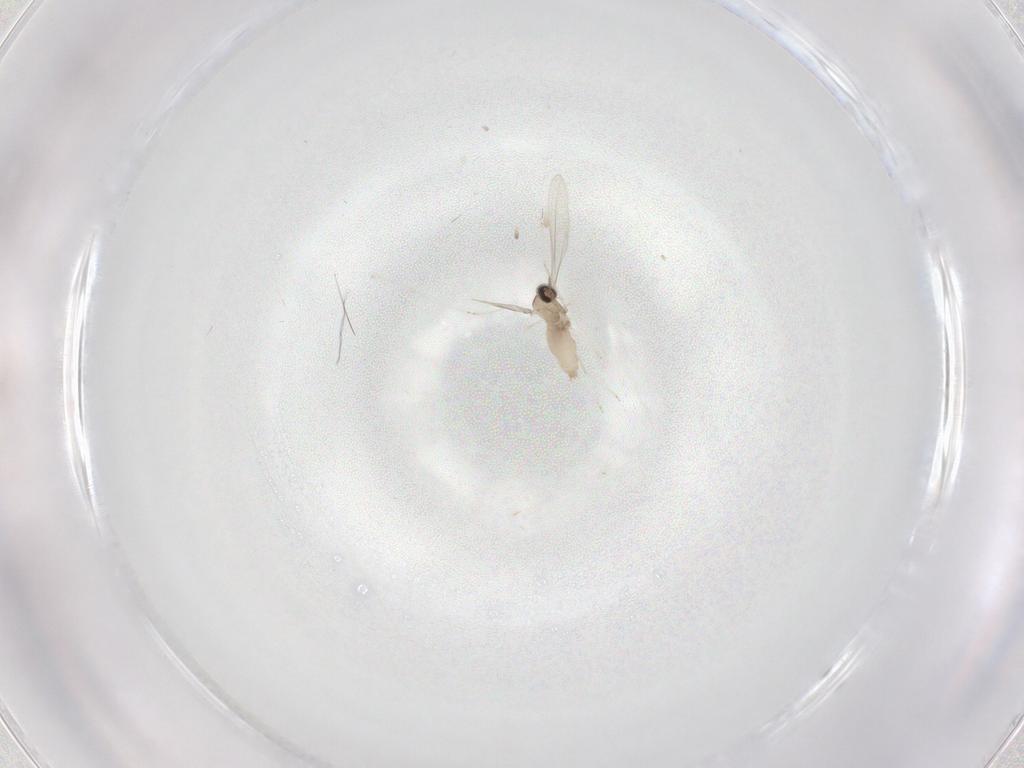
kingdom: Animalia
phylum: Arthropoda
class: Insecta
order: Diptera
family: Cecidomyiidae
